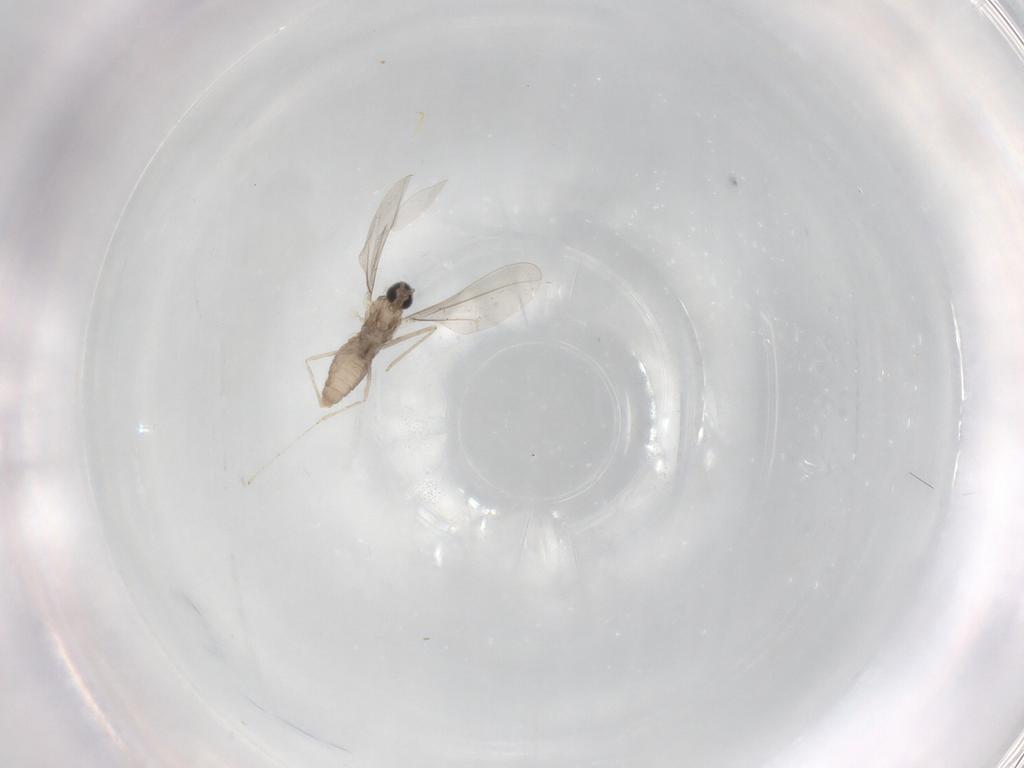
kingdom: Animalia
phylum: Arthropoda
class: Insecta
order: Diptera
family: Cecidomyiidae
